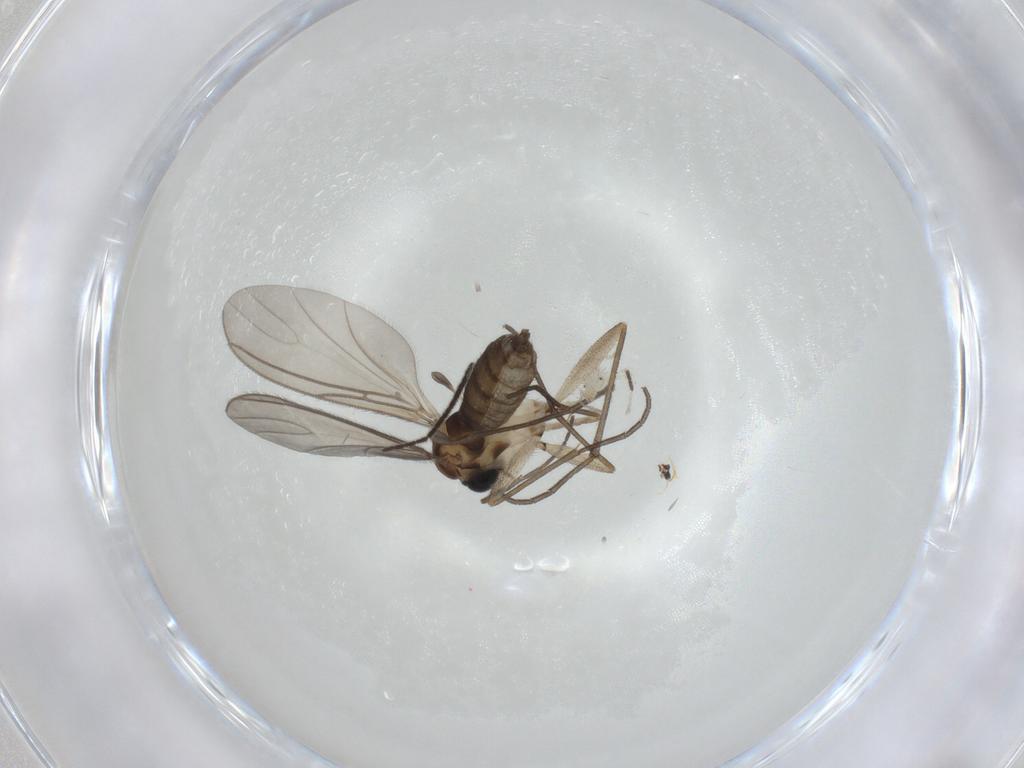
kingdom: Animalia
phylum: Arthropoda
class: Insecta
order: Diptera
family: Sciaridae
